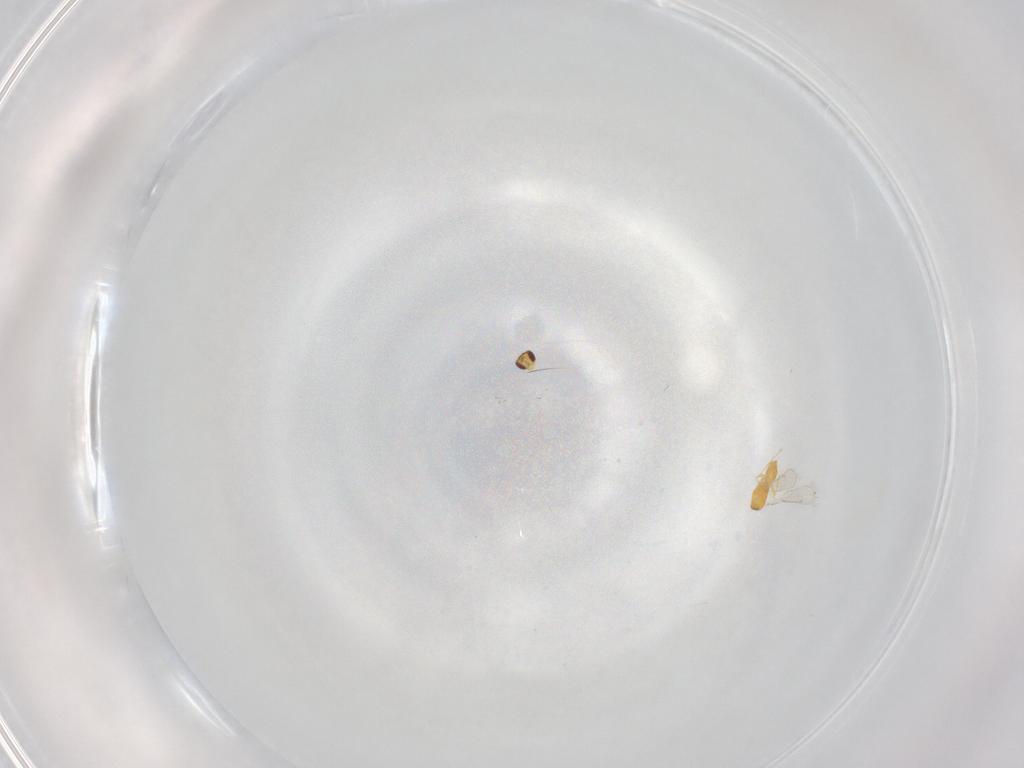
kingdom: Animalia
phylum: Arthropoda
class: Insecta
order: Hymenoptera
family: Eulophidae
